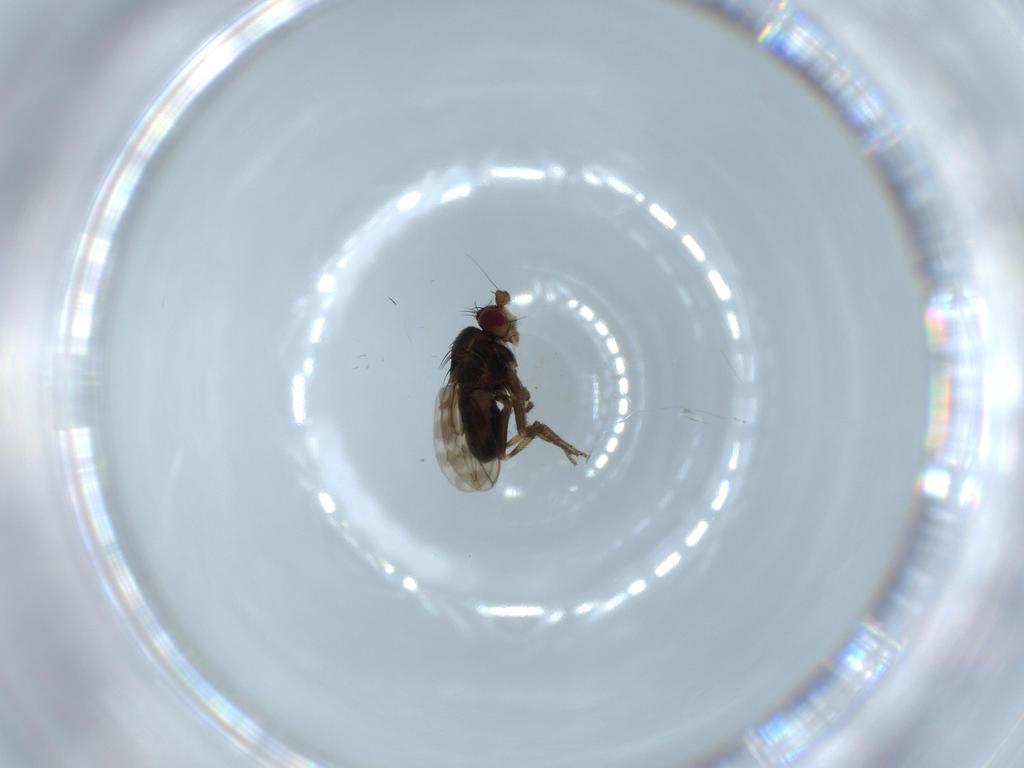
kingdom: Animalia
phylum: Arthropoda
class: Insecta
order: Diptera
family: Sphaeroceridae
